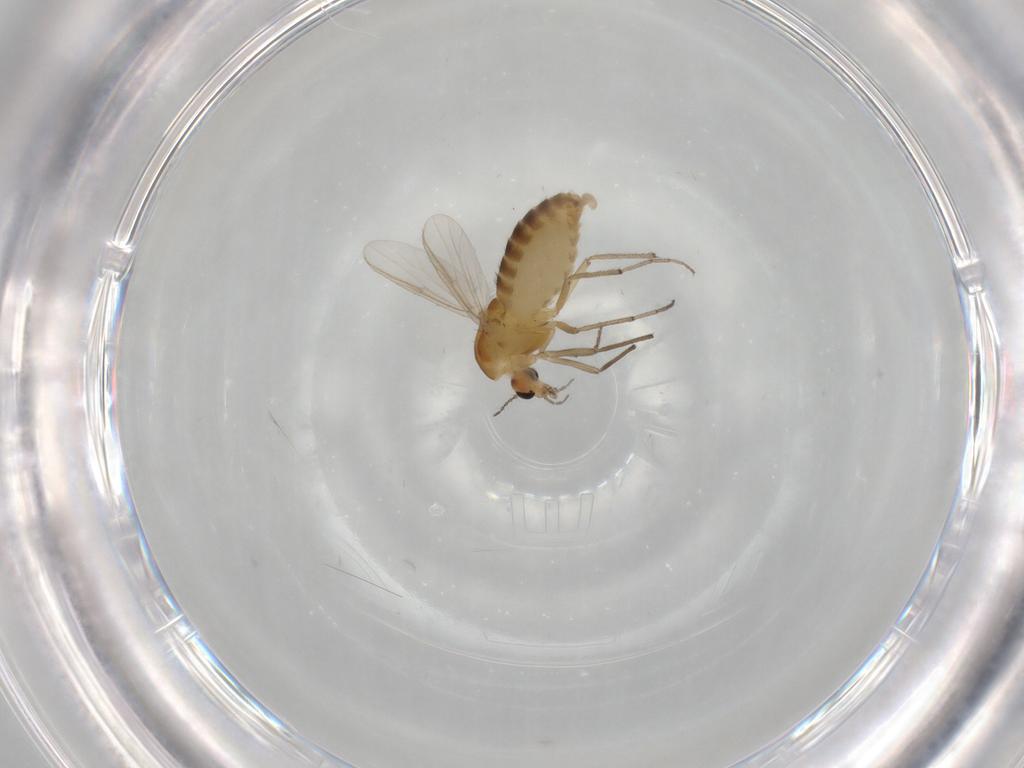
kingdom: Animalia
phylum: Arthropoda
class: Insecta
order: Diptera
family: Chironomidae
